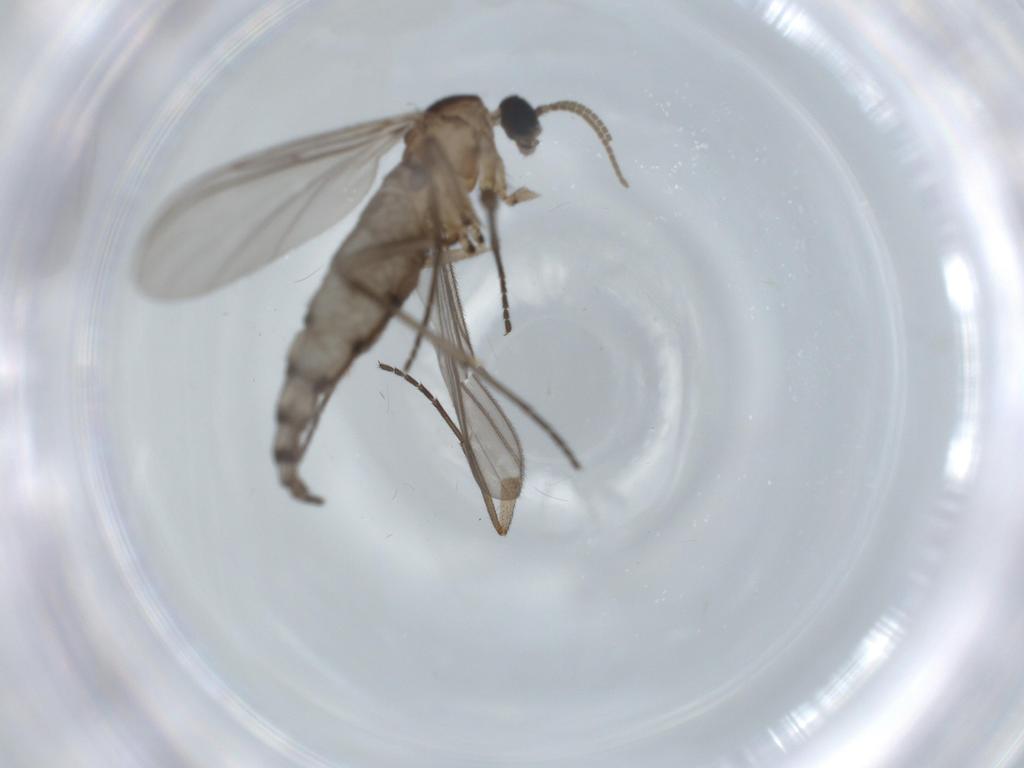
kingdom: Animalia
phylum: Arthropoda
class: Insecta
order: Diptera
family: Sciaridae
